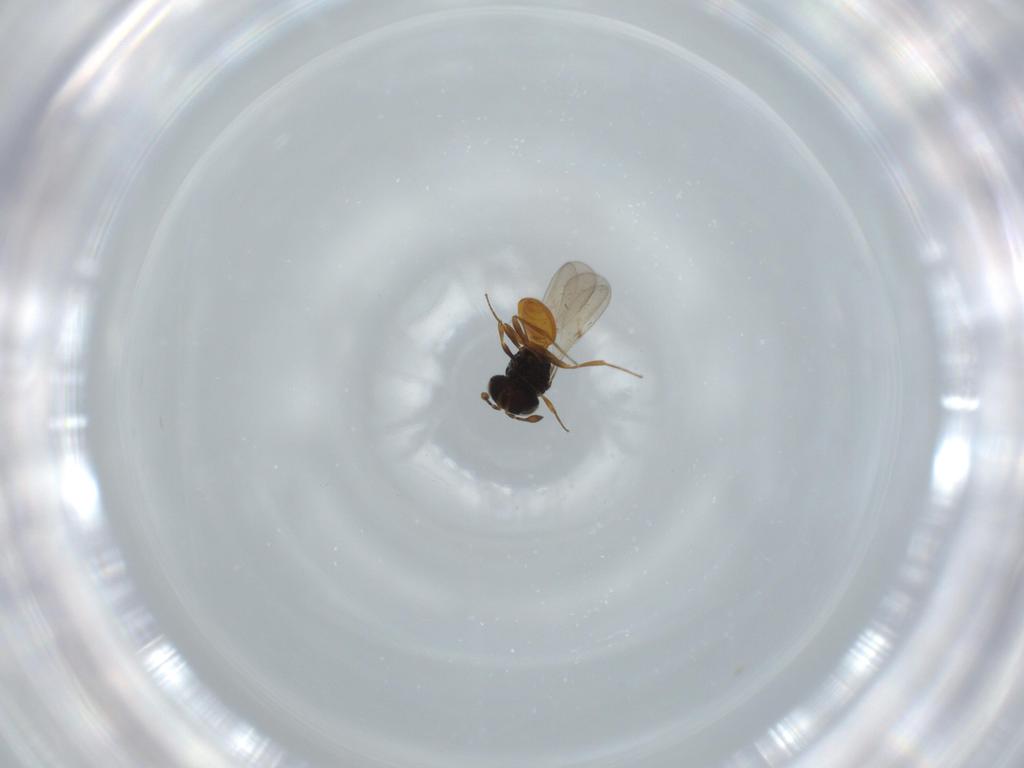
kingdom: Animalia
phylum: Arthropoda
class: Insecta
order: Hymenoptera
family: Scelionidae
